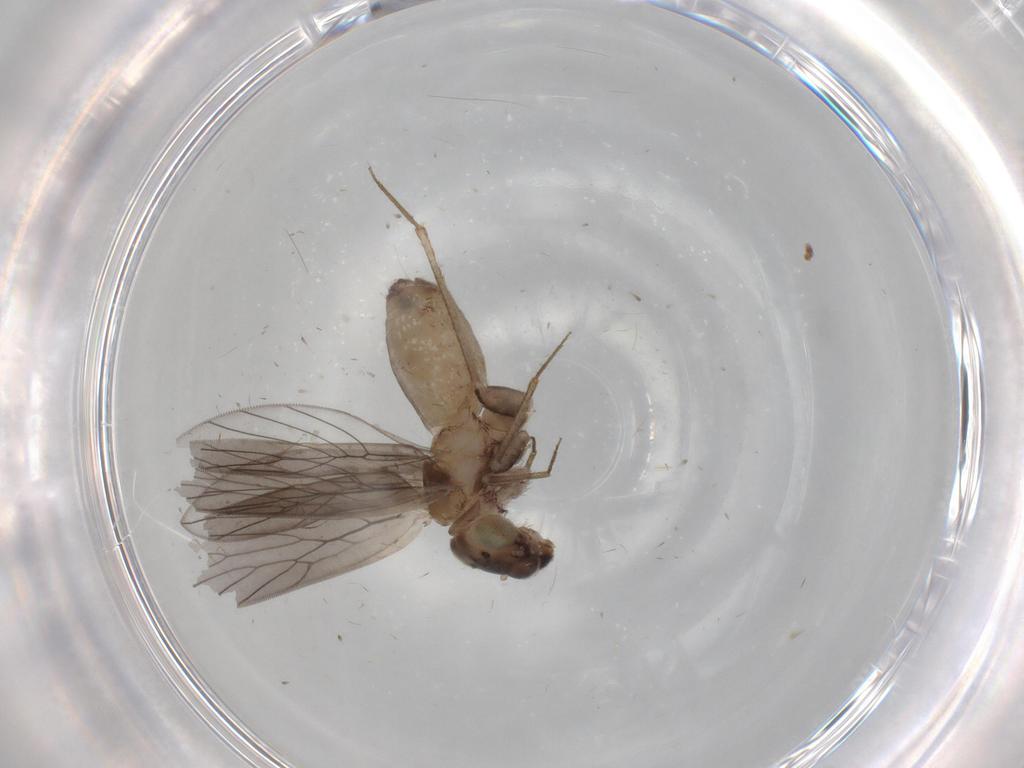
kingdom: Animalia
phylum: Arthropoda
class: Insecta
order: Psocodea
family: Lepidopsocidae
